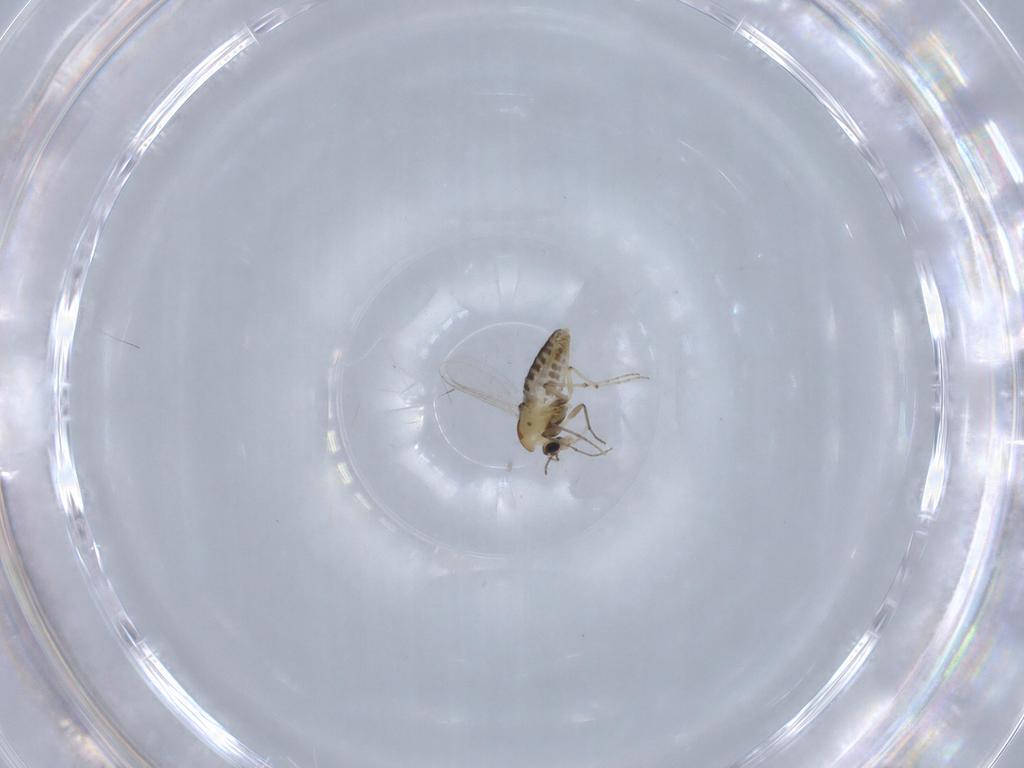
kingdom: Animalia
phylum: Arthropoda
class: Insecta
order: Diptera
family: Chironomidae
